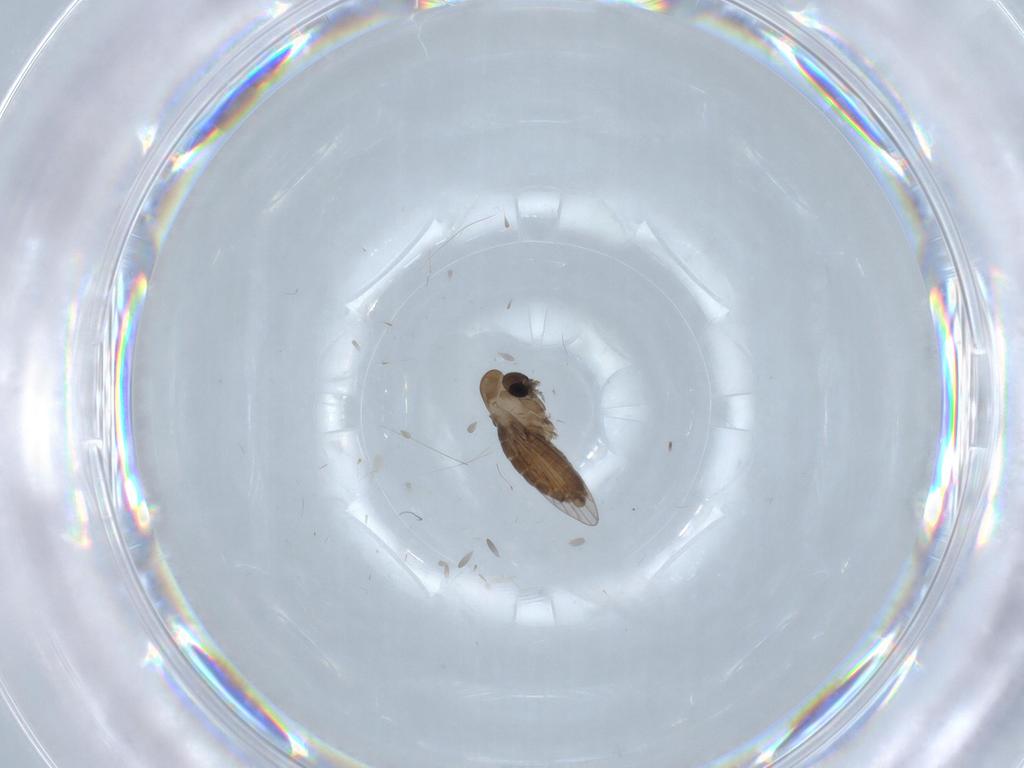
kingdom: Animalia
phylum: Arthropoda
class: Insecta
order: Diptera
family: Psychodidae
